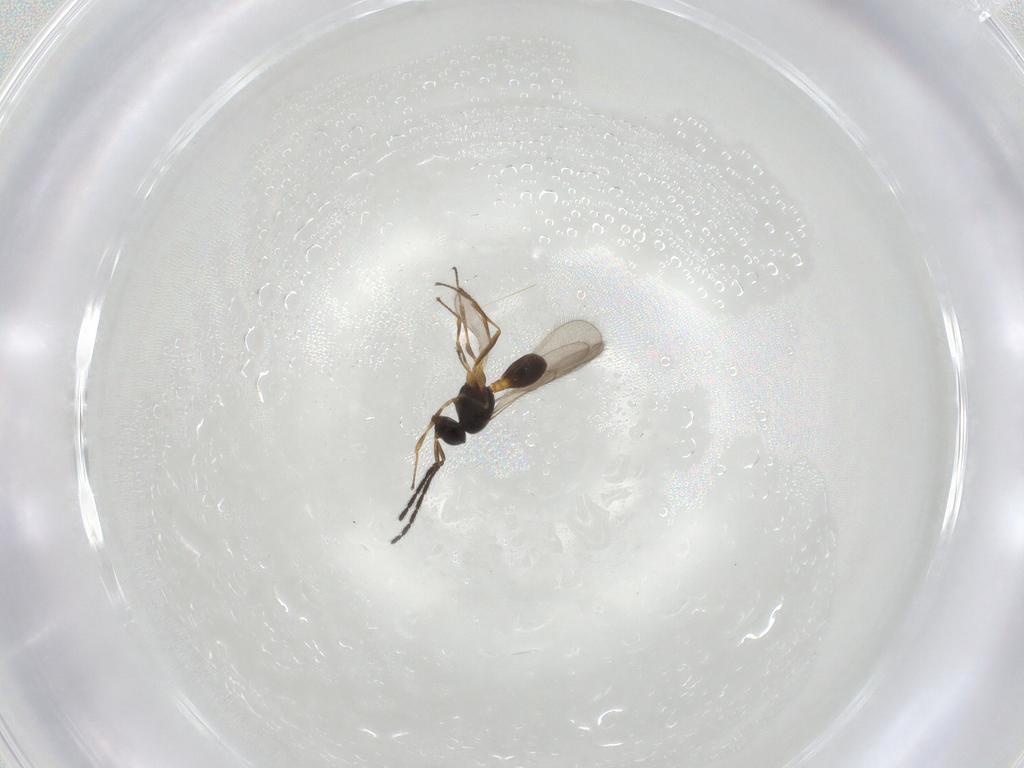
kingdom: Animalia
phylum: Arthropoda
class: Insecta
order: Hymenoptera
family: Scelionidae
